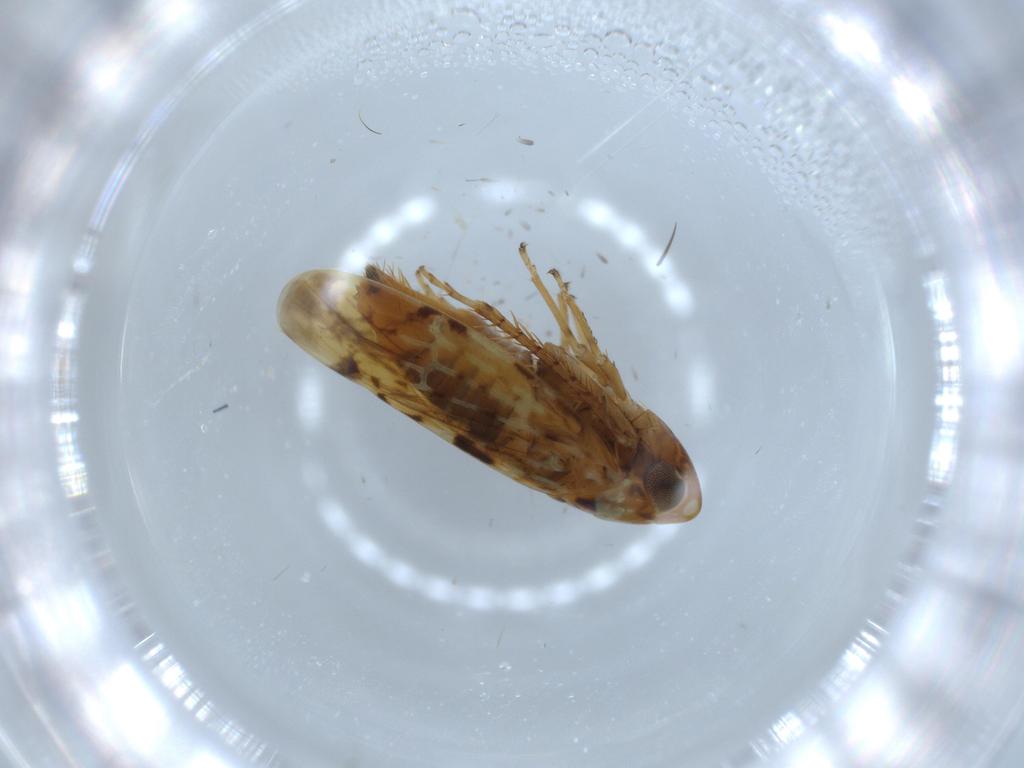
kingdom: Animalia
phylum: Arthropoda
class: Insecta
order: Hemiptera
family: Cicadellidae
